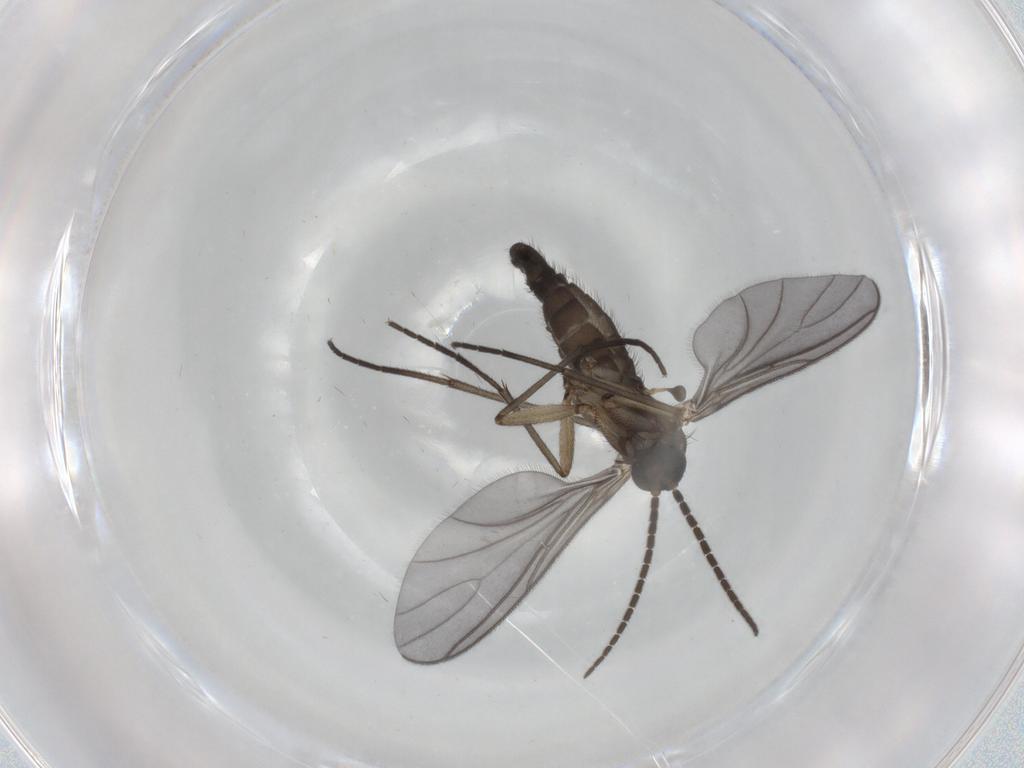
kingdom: Animalia
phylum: Arthropoda
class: Insecta
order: Diptera
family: Sciaridae
